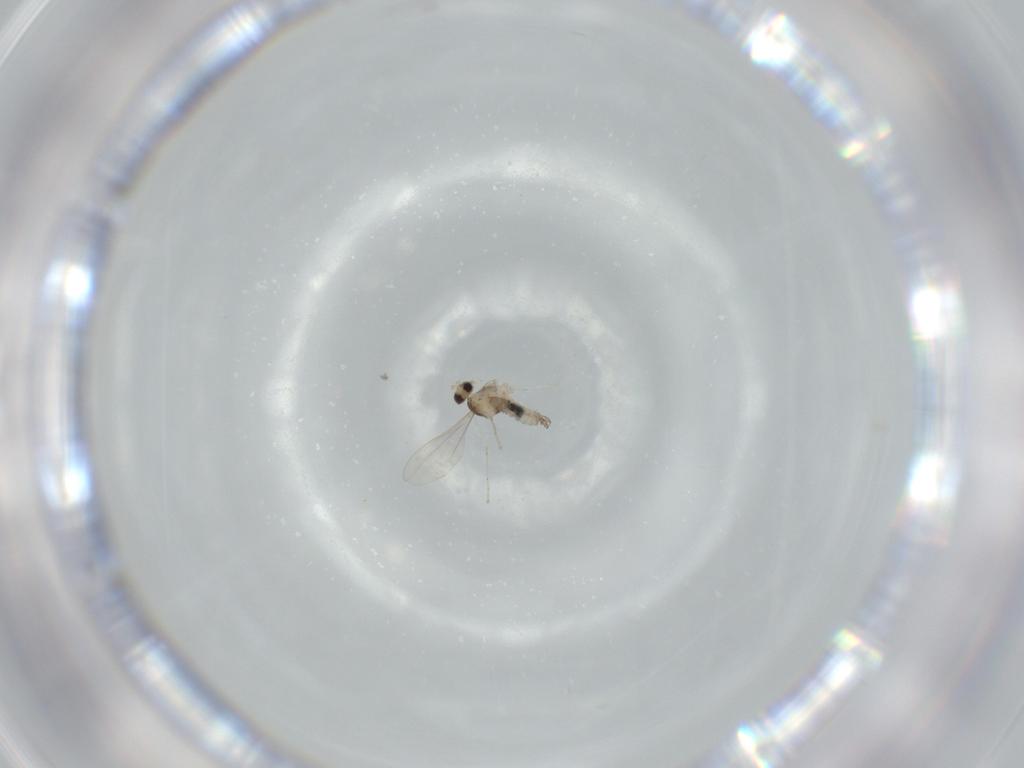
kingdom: Animalia
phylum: Arthropoda
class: Insecta
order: Diptera
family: Cecidomyiidae
